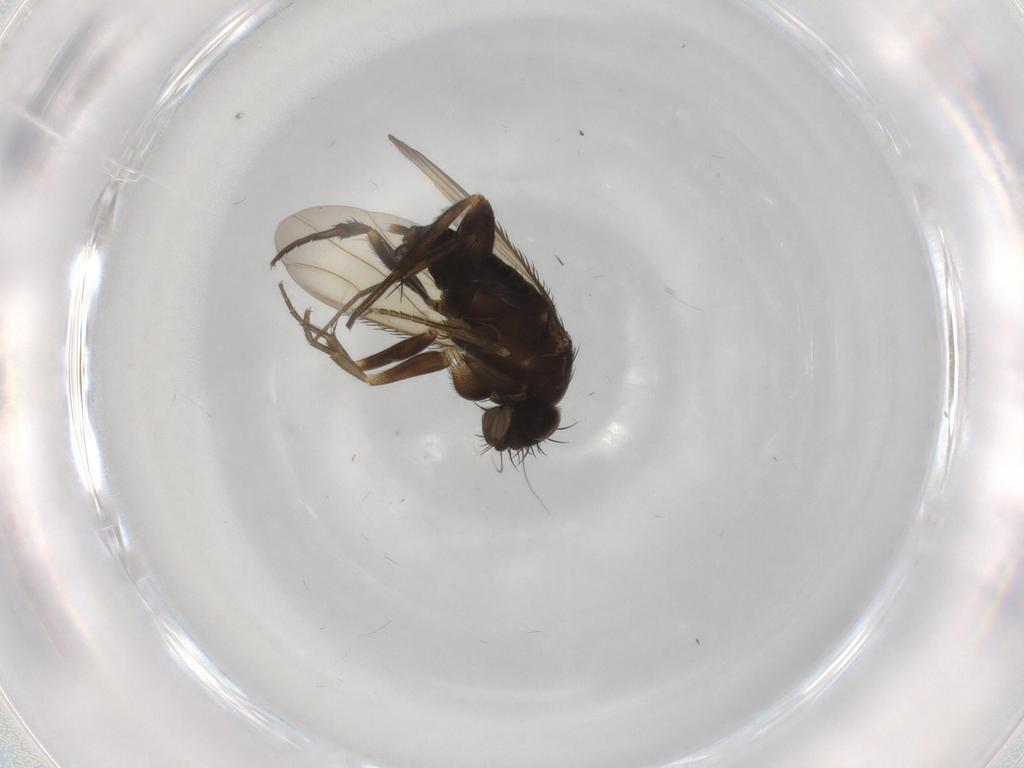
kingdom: Animalia
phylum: Arthropoda
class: Insecta
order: Diptera
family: Phoridae
